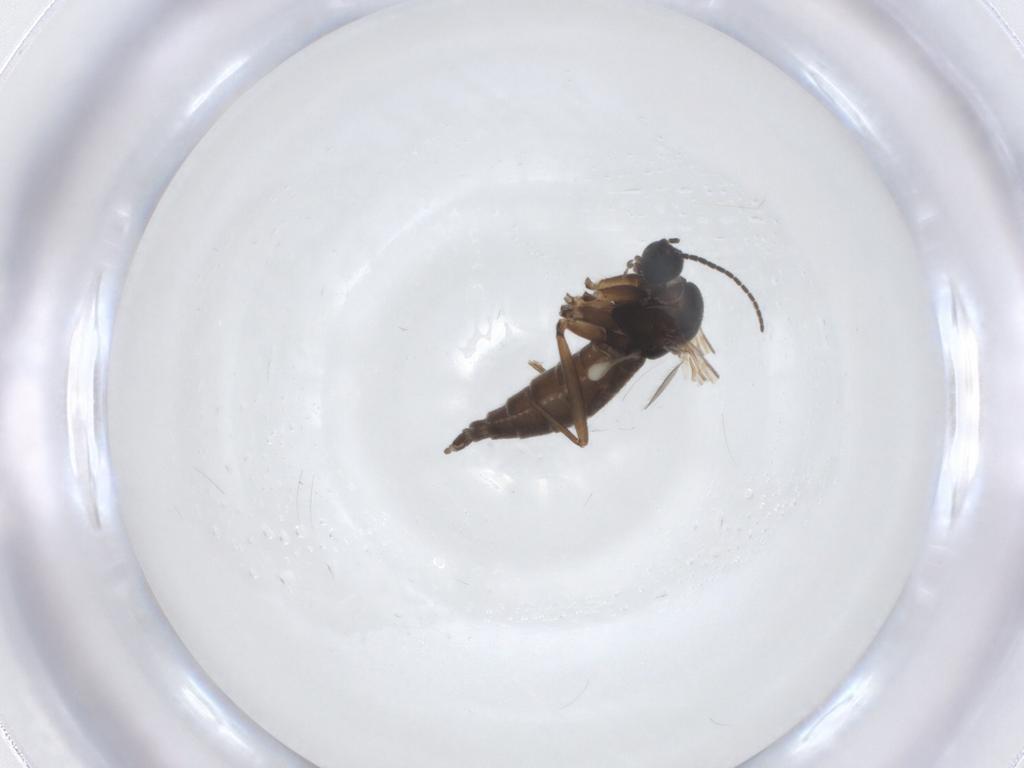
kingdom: Animalia
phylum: Arthropoda
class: Insecta
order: Diptera
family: Sciaridae
